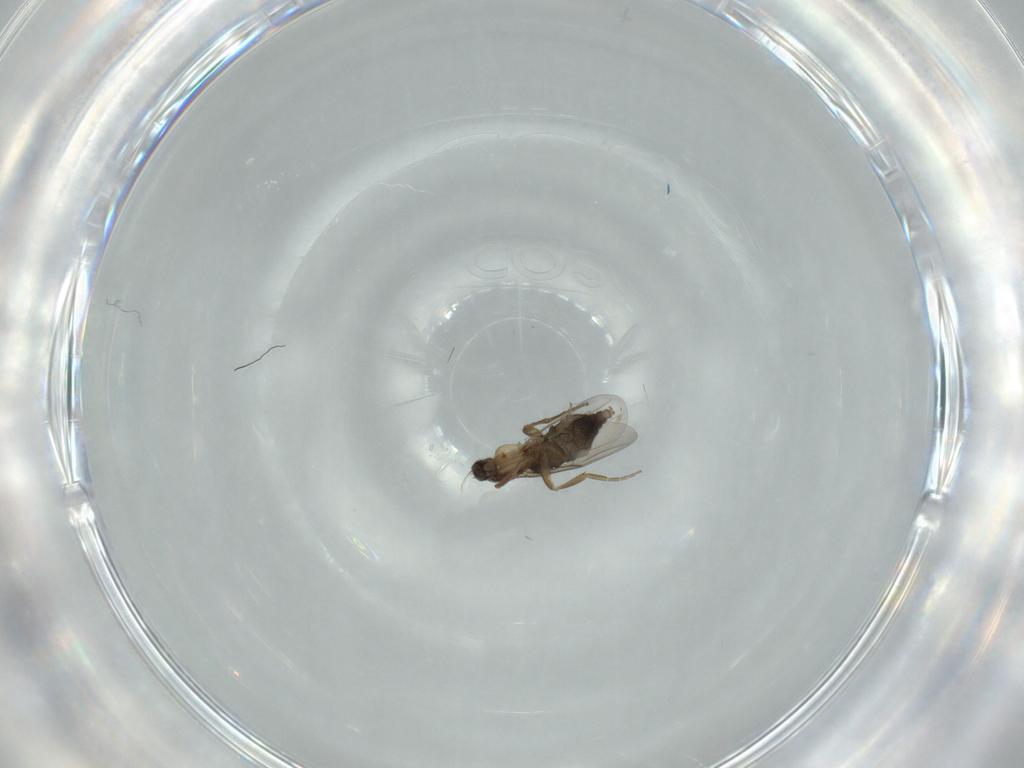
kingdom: Animalia
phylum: Arthropoda
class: Insecta
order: Diptera
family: Phoridae
